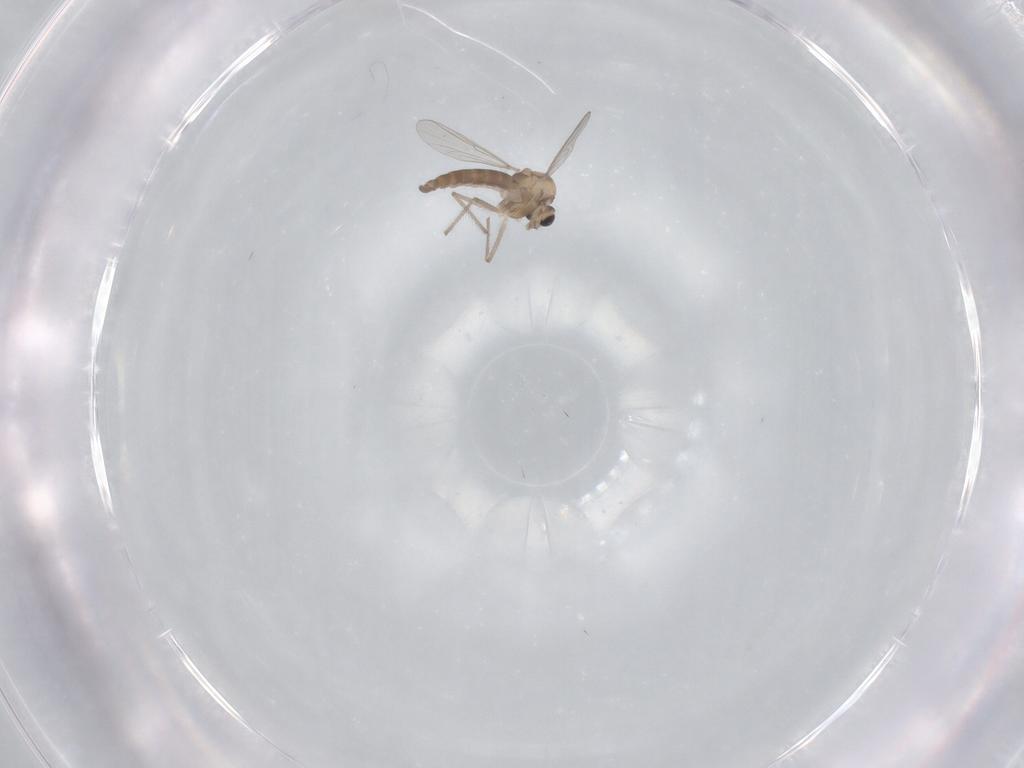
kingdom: Animalia
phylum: Arthropoda
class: Insecta
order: Diptera
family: Chironomidae
